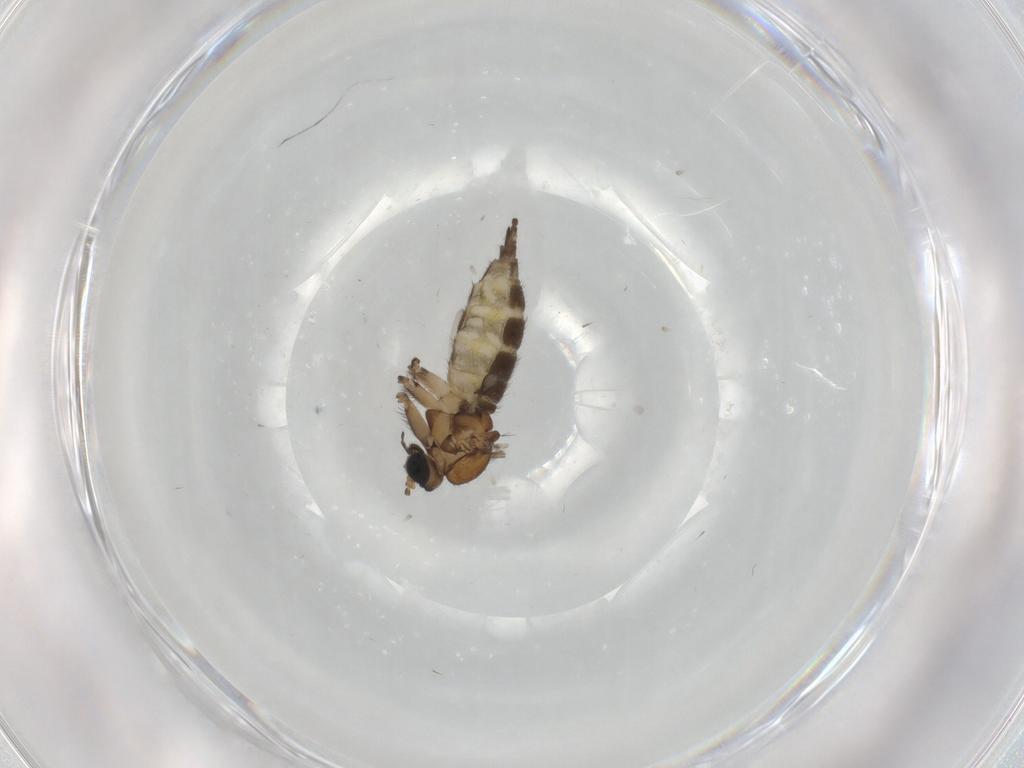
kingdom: Animalia
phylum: Arthropoda
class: Insecta
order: Diptera
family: Sciaridae
